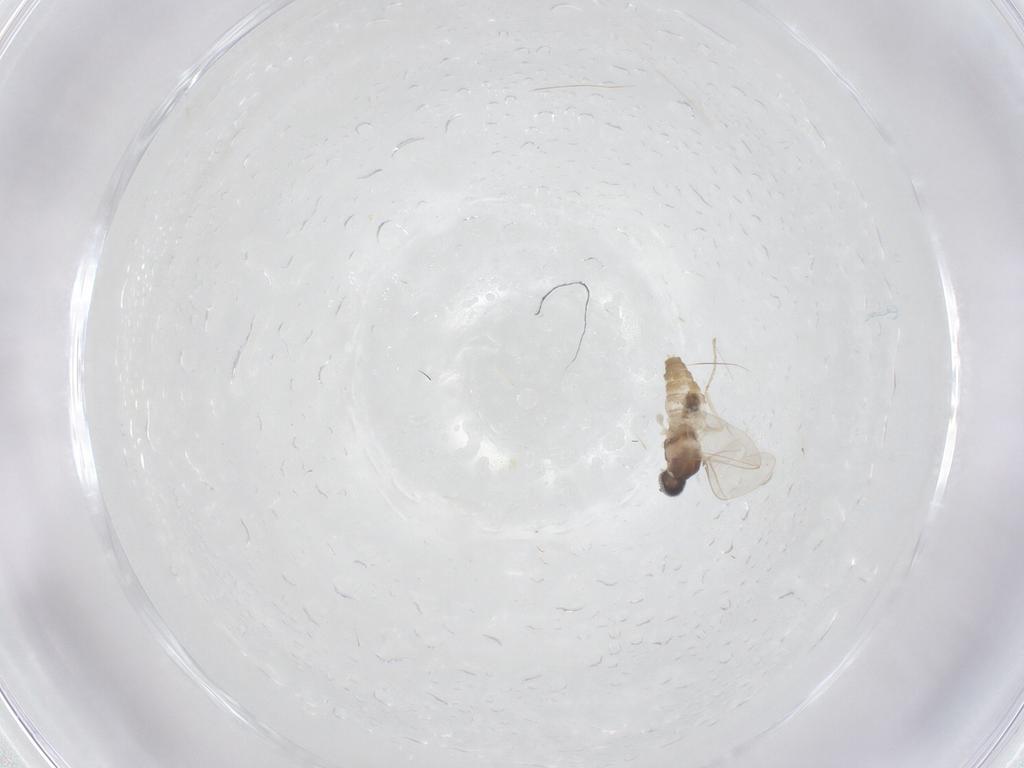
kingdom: Animalia
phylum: Arthropoda
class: Insecta
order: Diptera
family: Cecidomyiidae
